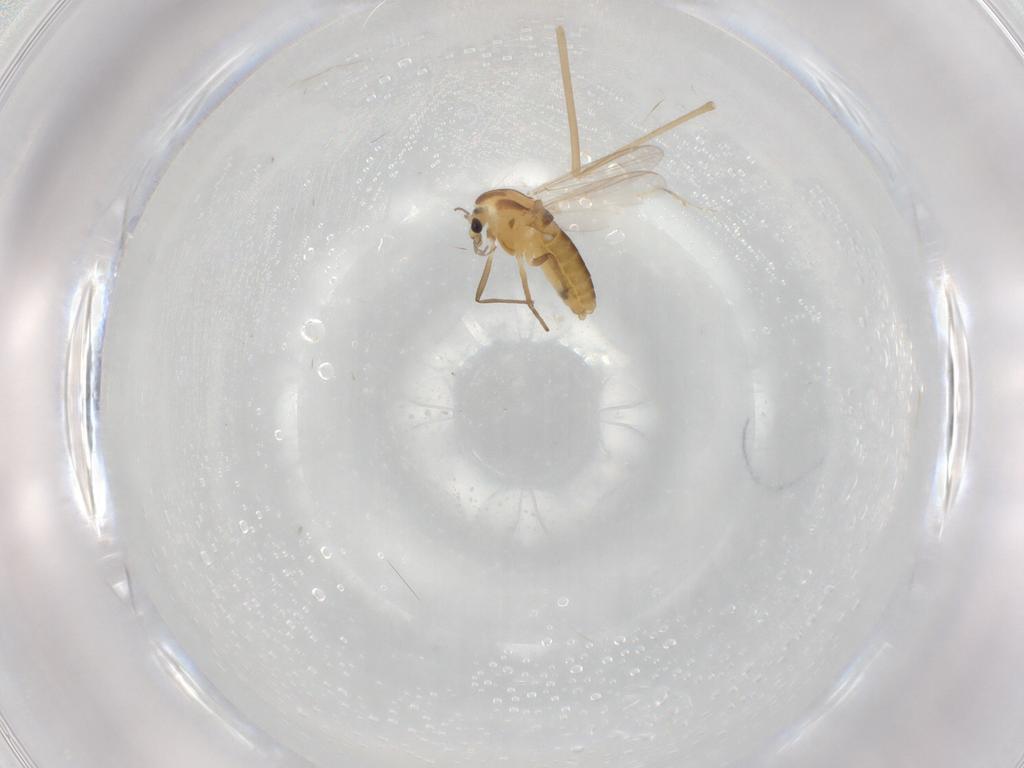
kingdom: Animalia
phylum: Arthropoda
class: Insecta
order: Diptera
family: Chironomidae
